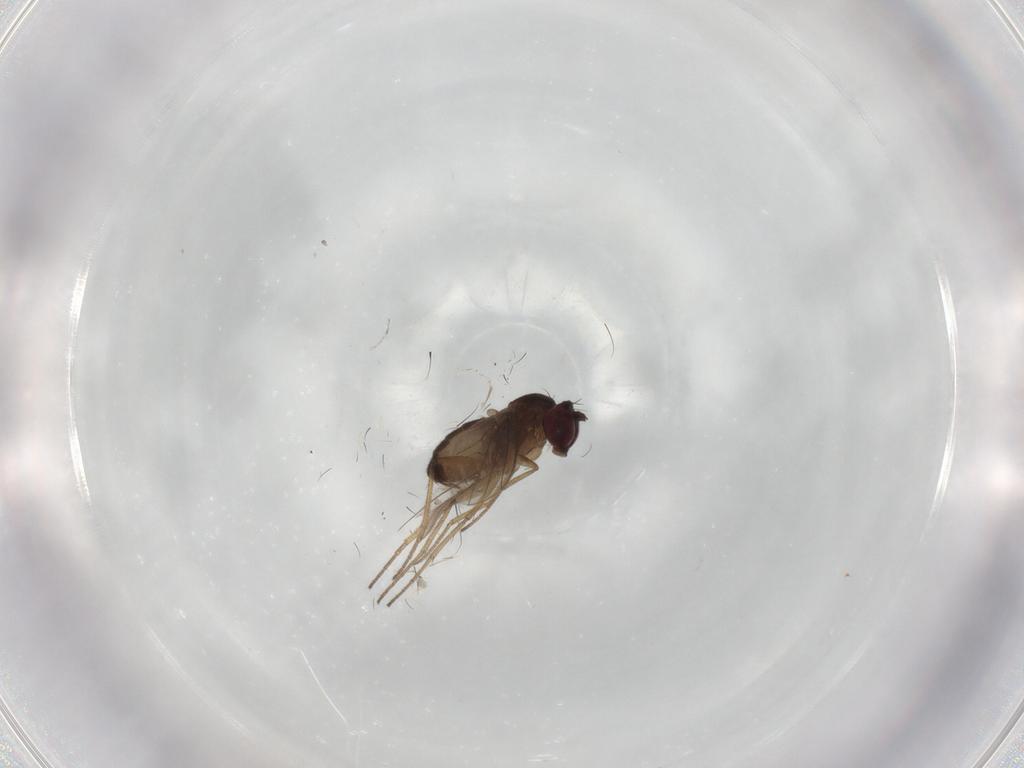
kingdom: Animalia
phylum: Arthropoda
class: Insecta
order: Diptera
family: Dolichopodidae
